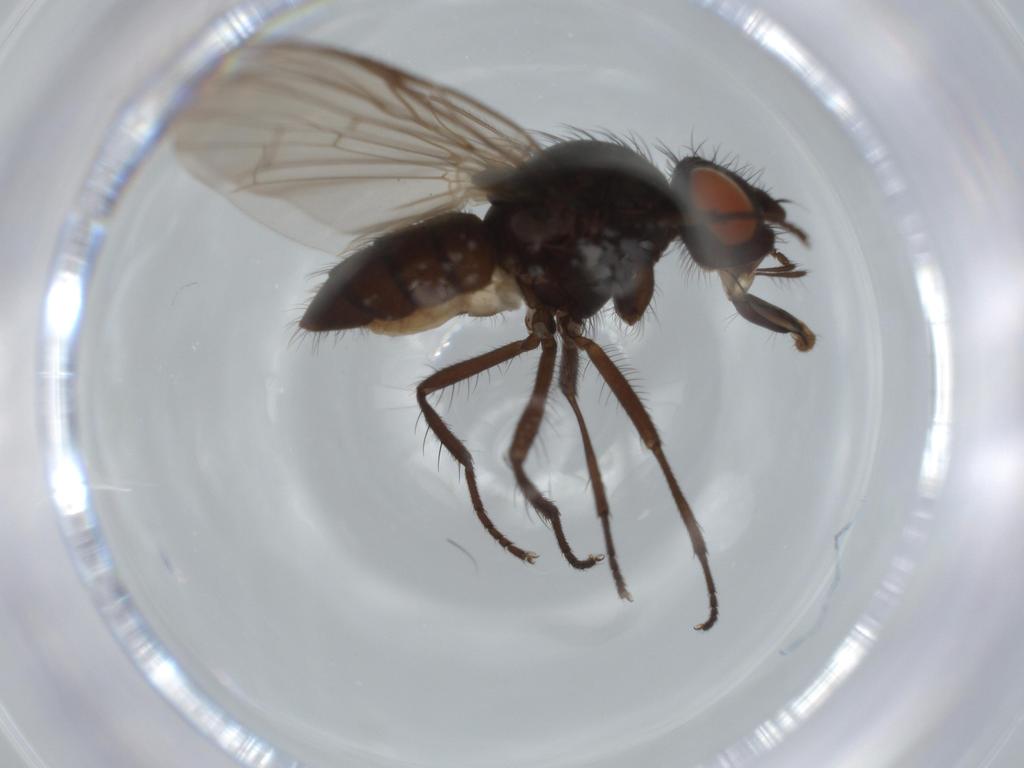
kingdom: Animalia
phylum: Arthropoda
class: Insecta
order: Diptera
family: Anthomyiidae
